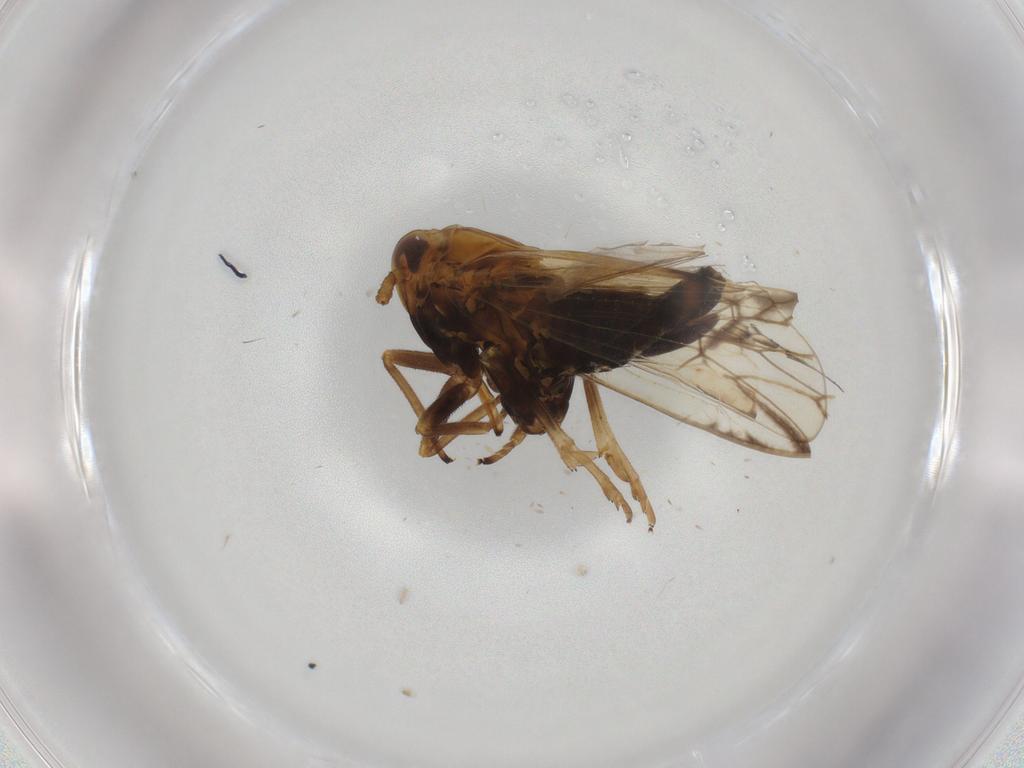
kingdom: Animalia
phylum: Arthropoda
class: Insecta
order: Hemiptera
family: Delphacidae
